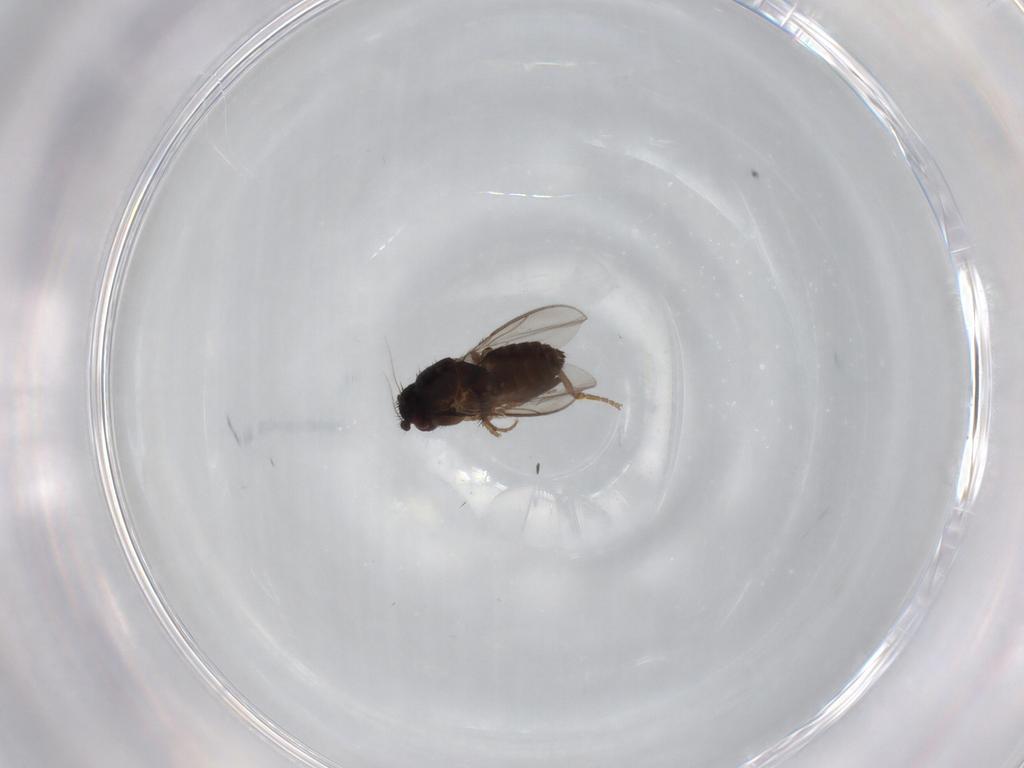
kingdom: Animalia
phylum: Arthropoda
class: Insecta
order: Diptera
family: Sphaeroceridae
